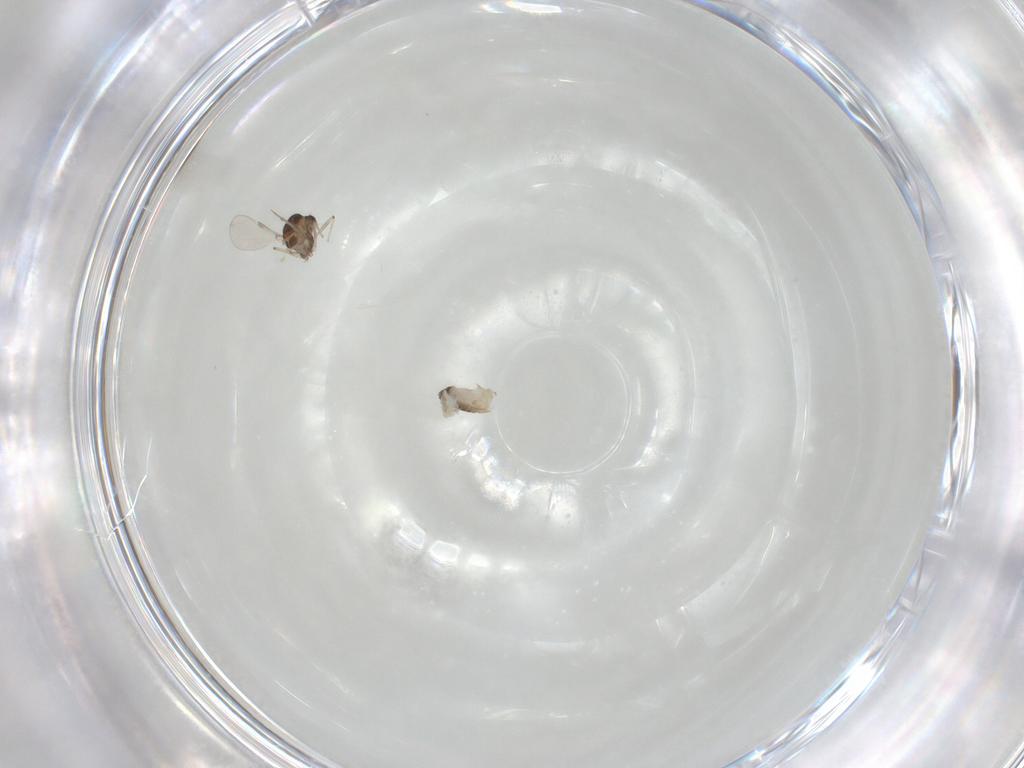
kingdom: Animalia
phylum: Arthropoda
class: Insecta
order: Diptera
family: Chironomidae
